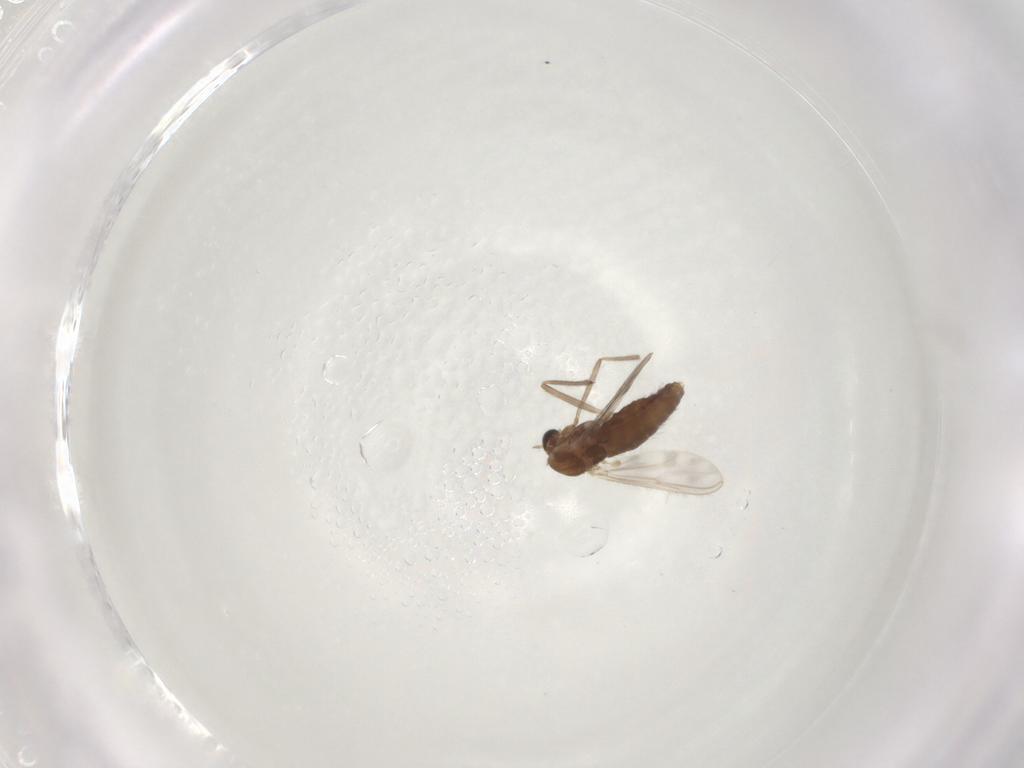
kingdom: Animalia
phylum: Arthropoda
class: Insecta
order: Diptera
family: Chironomidae
